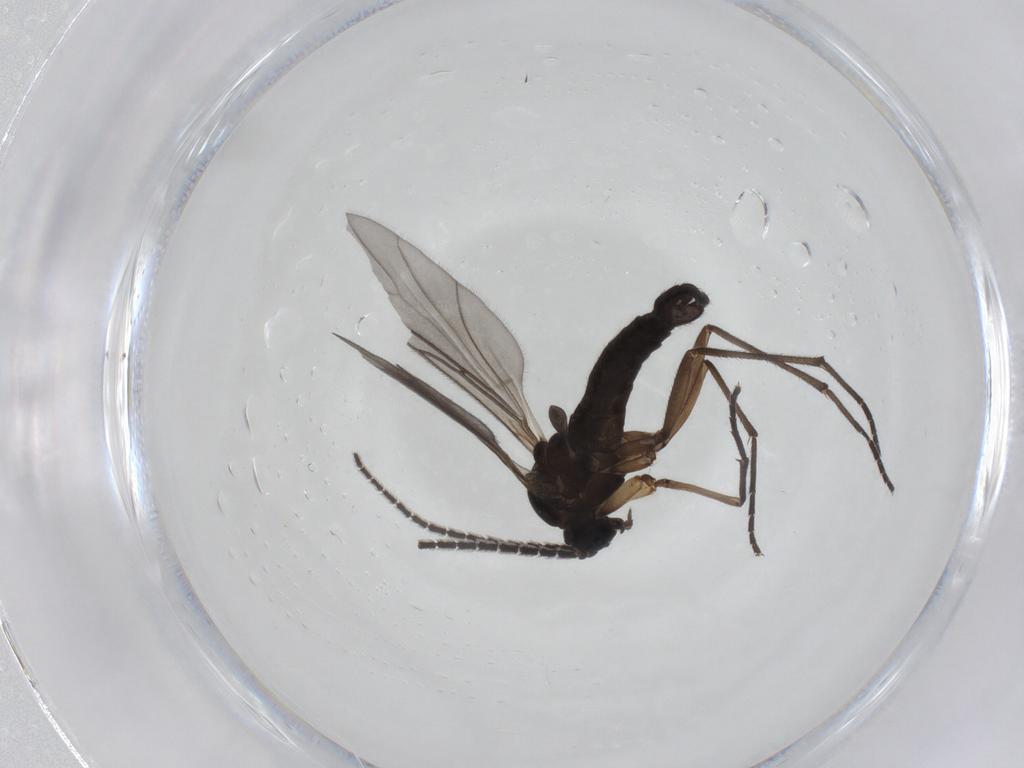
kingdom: Animalia
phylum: Arthropoda
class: Insecta
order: Diptera
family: Sciaridae
